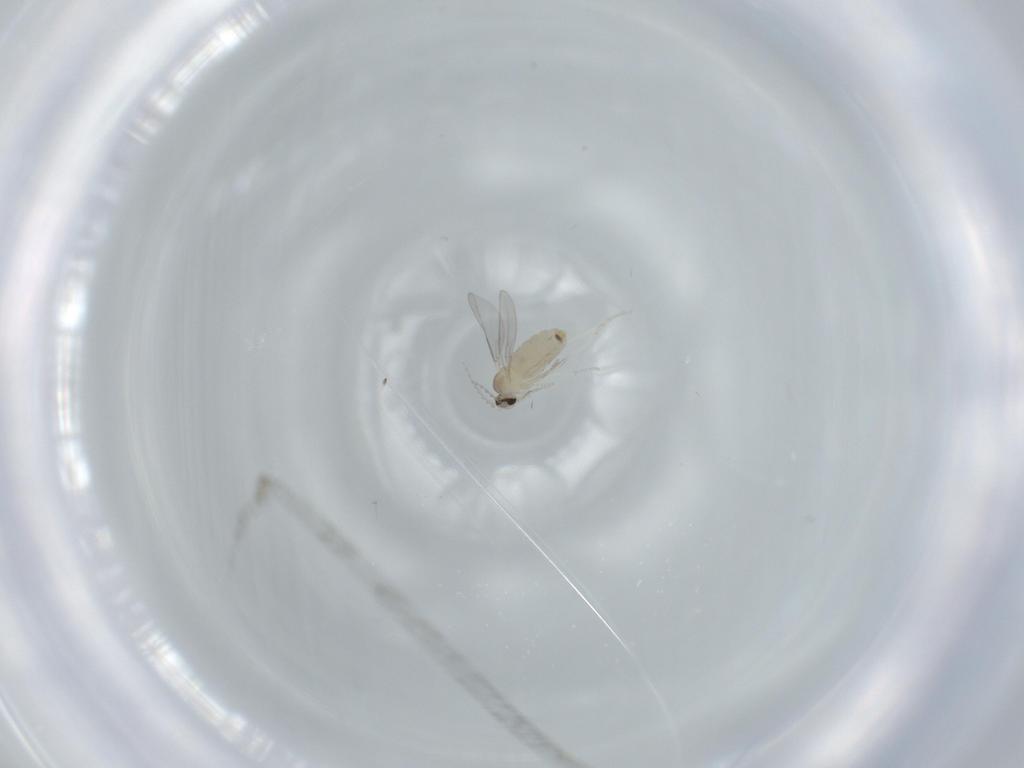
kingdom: Animalia
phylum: Arthropoda
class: Insecta
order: Diptera
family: Cecidomyiidae
